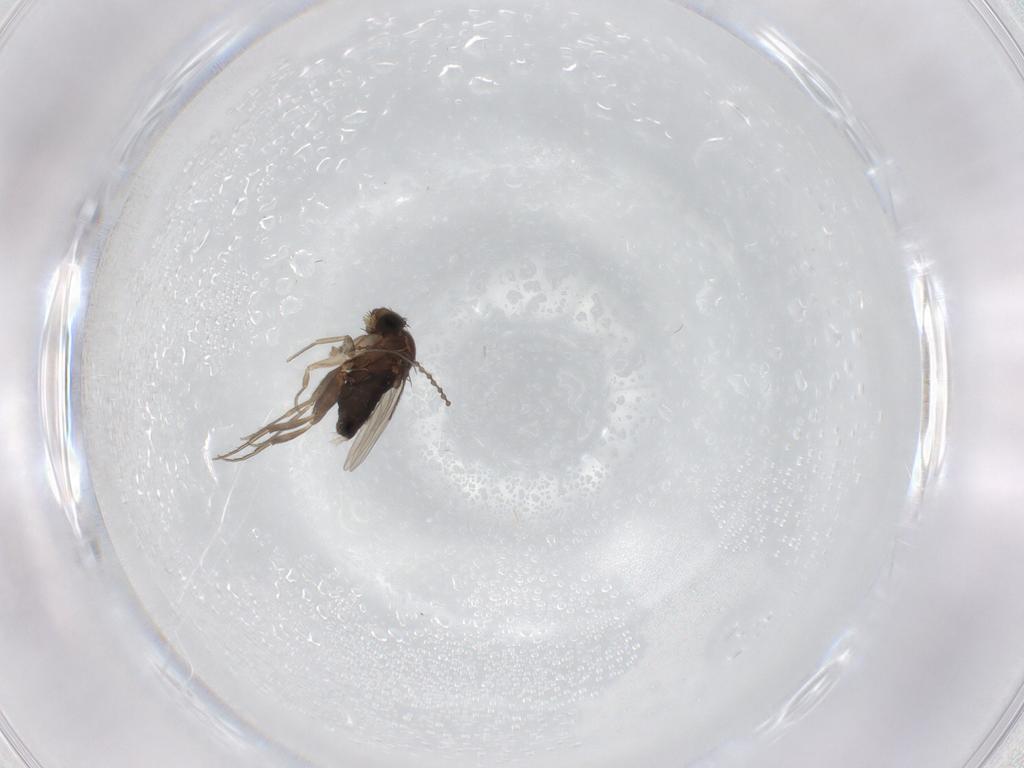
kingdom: Animalia
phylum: Arthropoda
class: Insecta
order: Diptera
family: Phoridae
